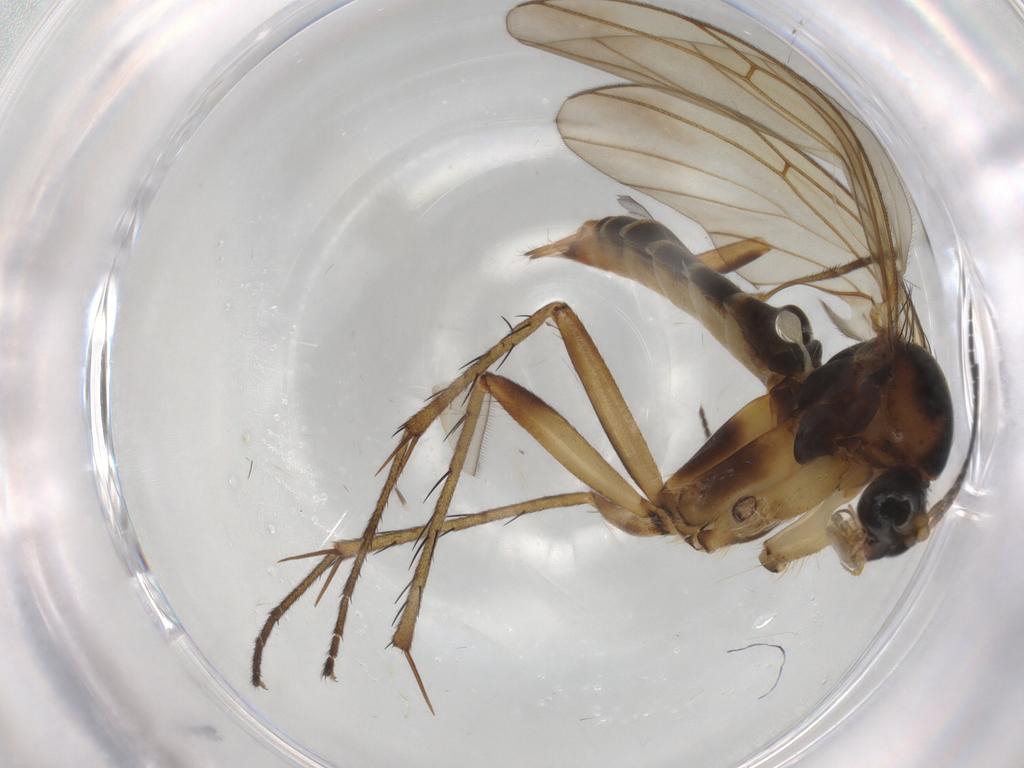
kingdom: Animalia
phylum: Arthropoda
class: Insecta
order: Diptera
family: Mycetophilidae
